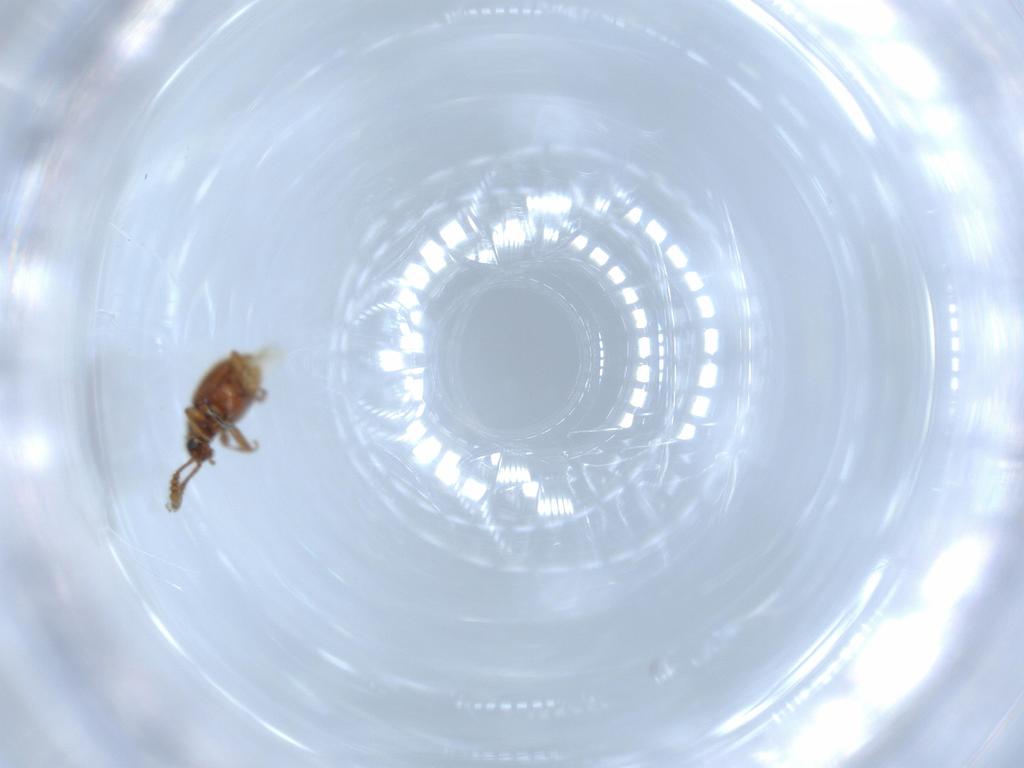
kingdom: Animalia
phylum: Arthropoda
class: Insecta
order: Coleoptera
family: Staphylinidae
